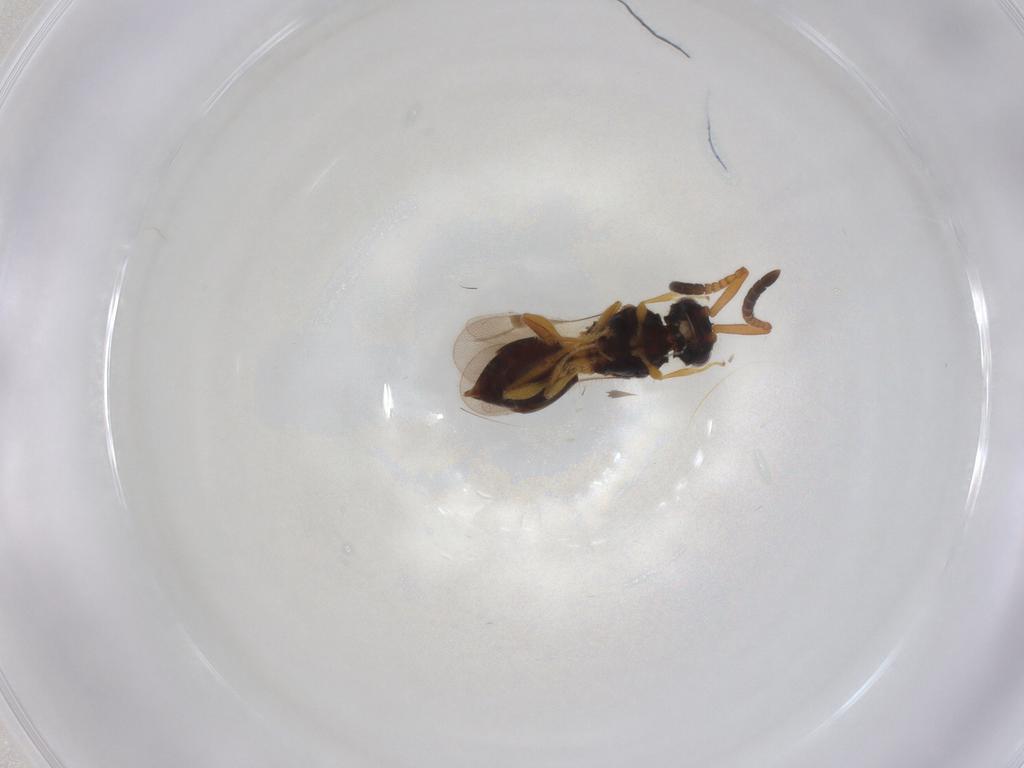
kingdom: Animalia
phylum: Arthropoda
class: Insecta
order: Hymenoptera
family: Megaspilidae
